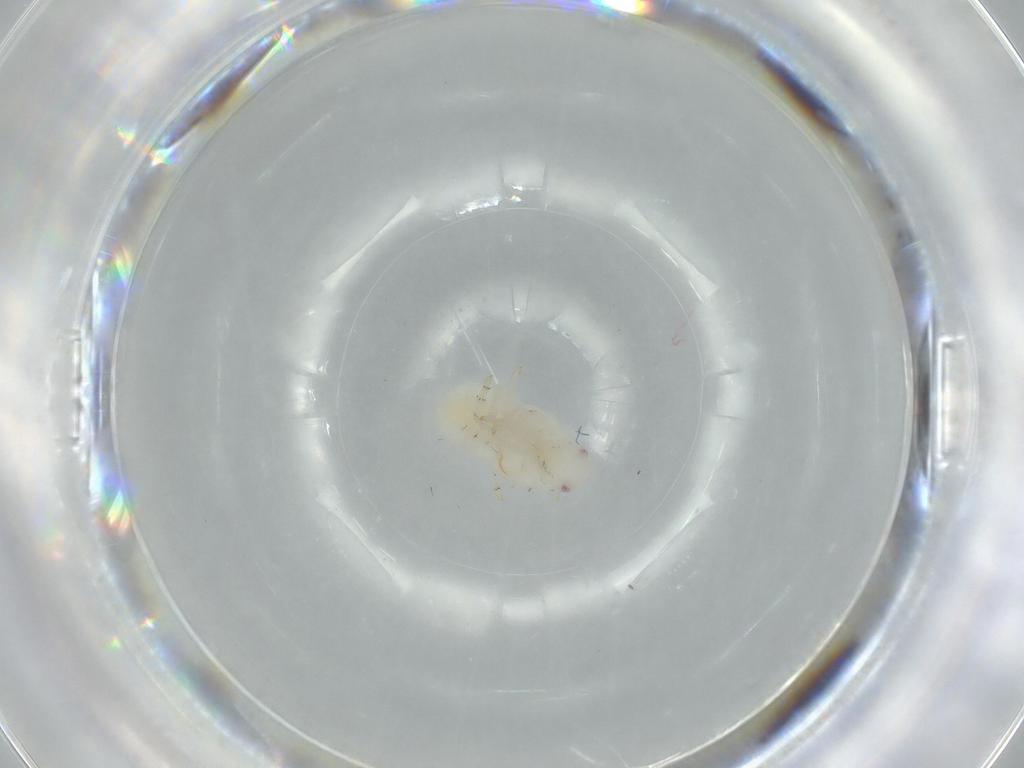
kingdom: Animalia
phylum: Arthropoda
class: Insecta
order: Hemiptera
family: Flatidae
